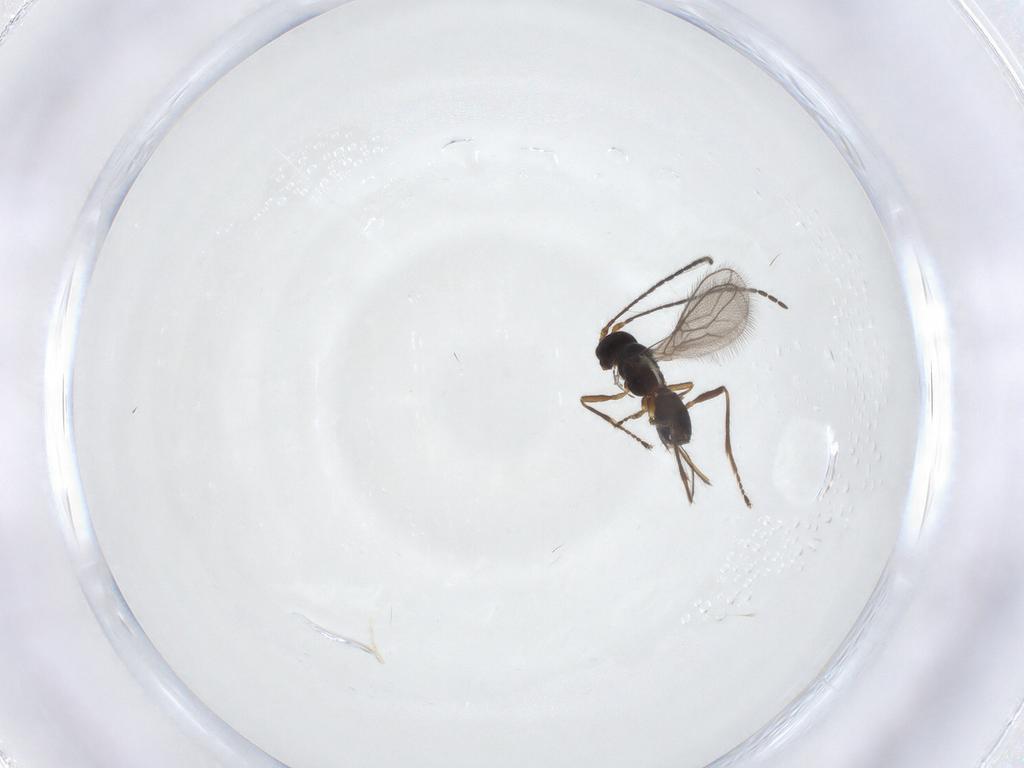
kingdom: Animalia
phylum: Arthropoda
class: Insecta
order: Hymenoptera
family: Braconidae
